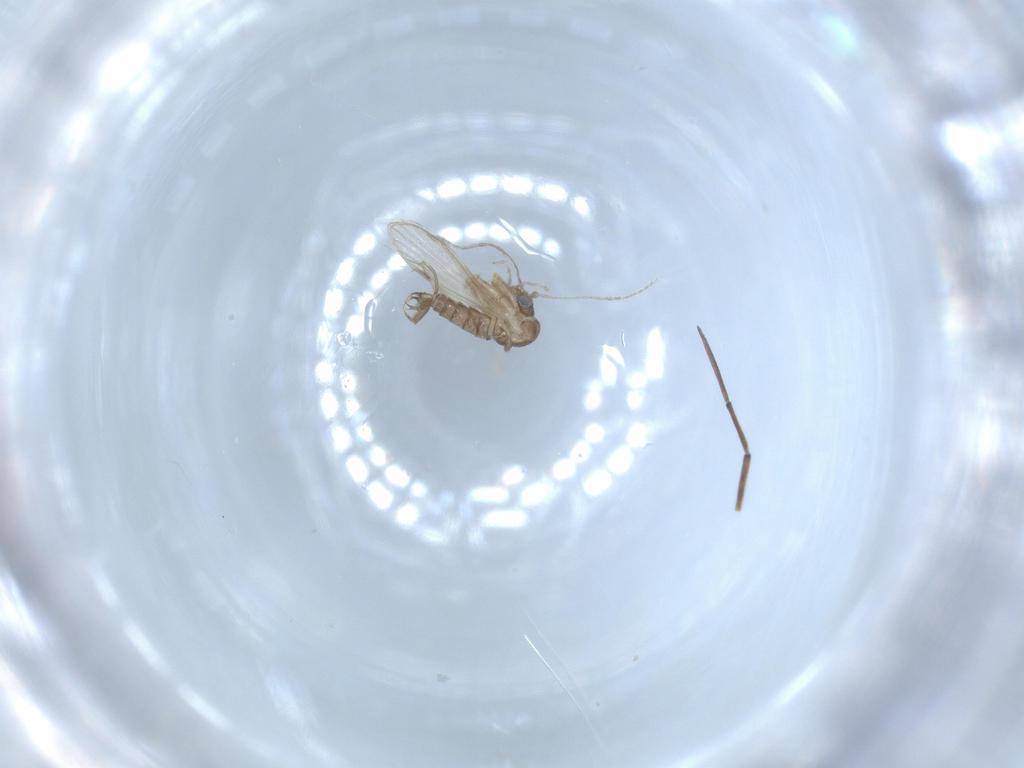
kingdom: Animalia
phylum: Arthropoda
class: Insecta
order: Diptera
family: Psychodidae
